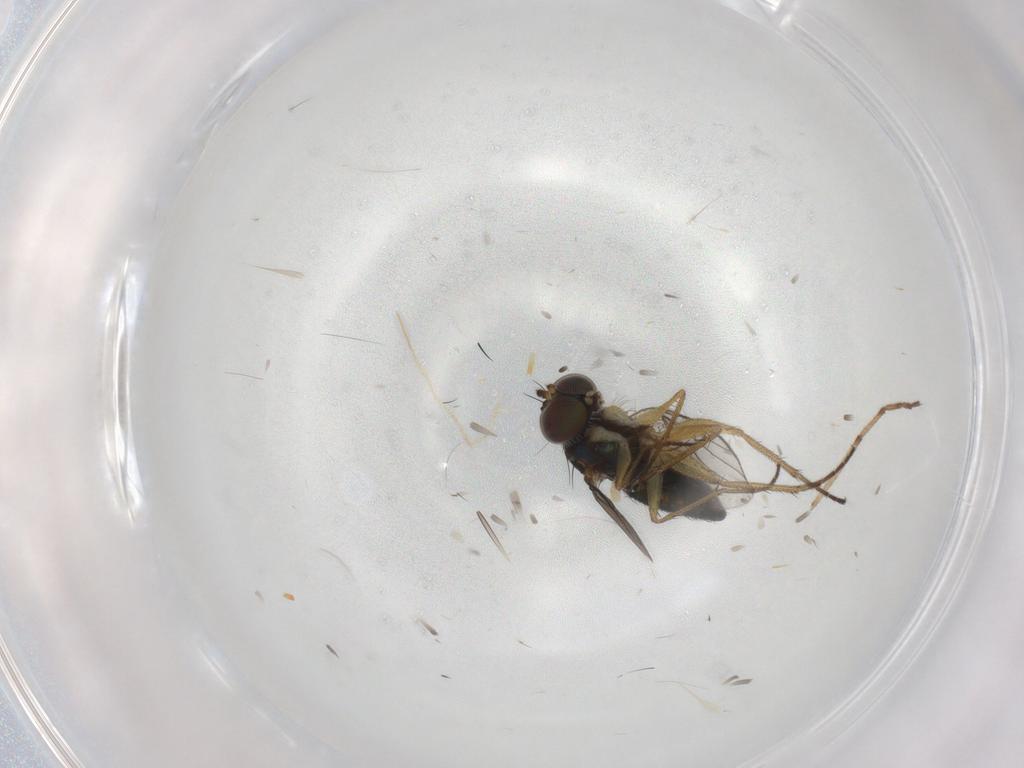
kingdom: Animalia
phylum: Arthropoda
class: Insecta
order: Diptera
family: Chironomidae
